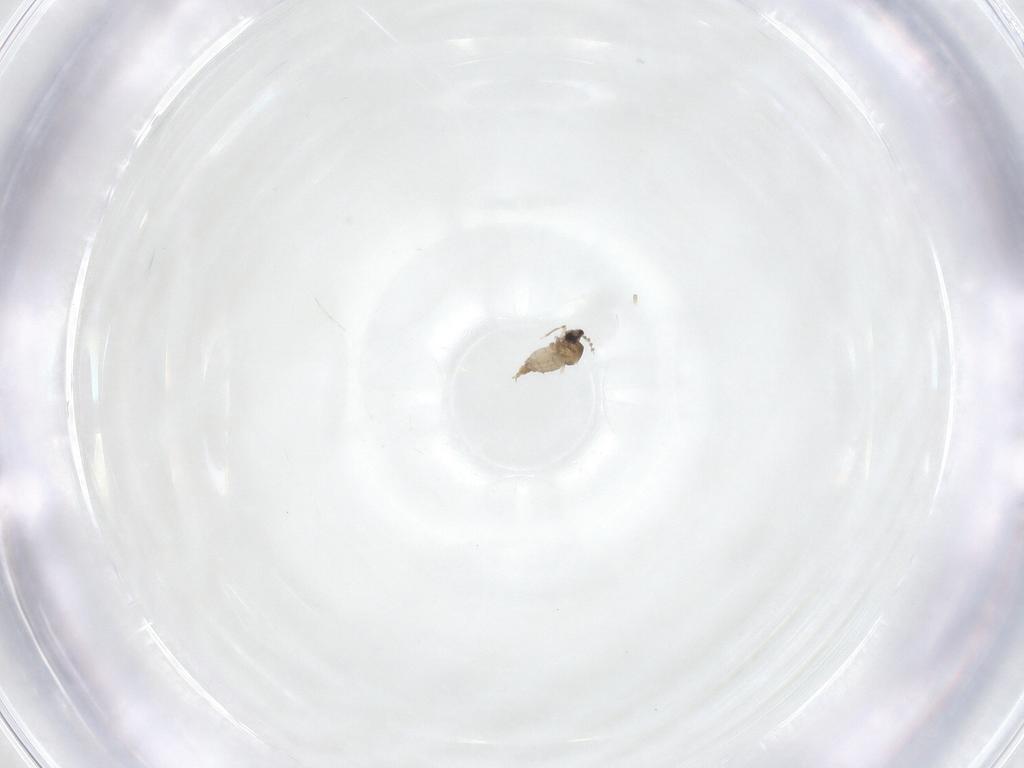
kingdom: Animalia
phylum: Arthropoda
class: Insecta
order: Diptera
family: Cecidomyiidae
